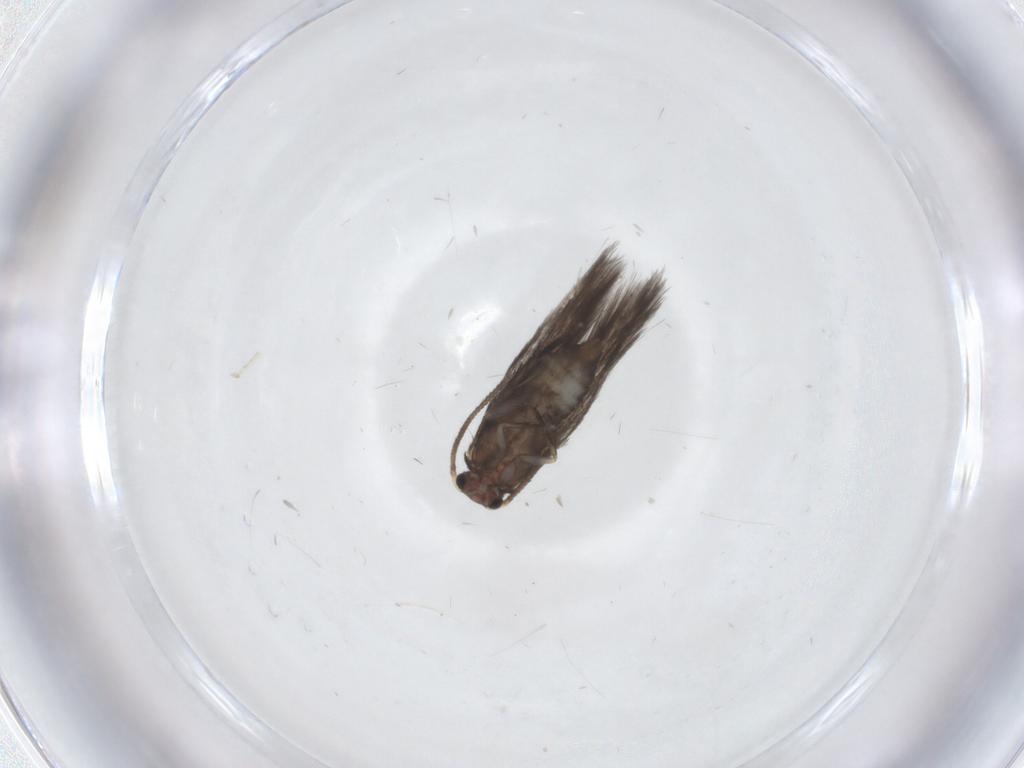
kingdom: Animalia
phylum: Arthropoda
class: Insecta
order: Lepidoptera
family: Nepticulidae
